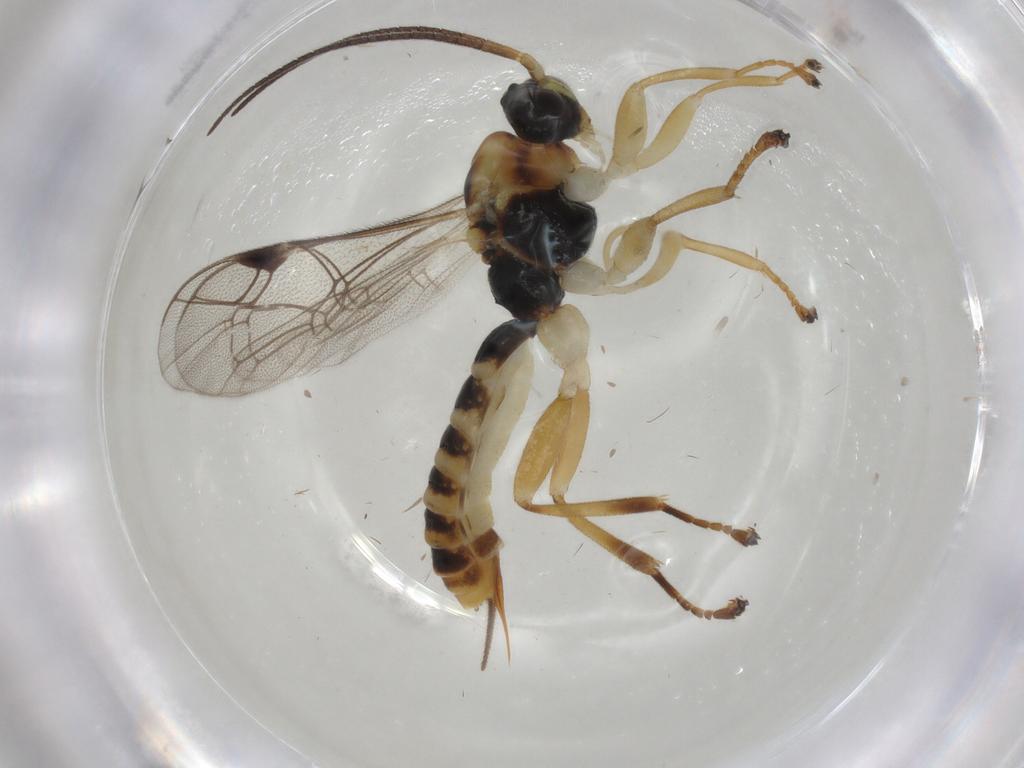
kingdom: Animalia
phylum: Arthropoda
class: Insecta
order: Hymenoptera
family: Ichneumonidae
